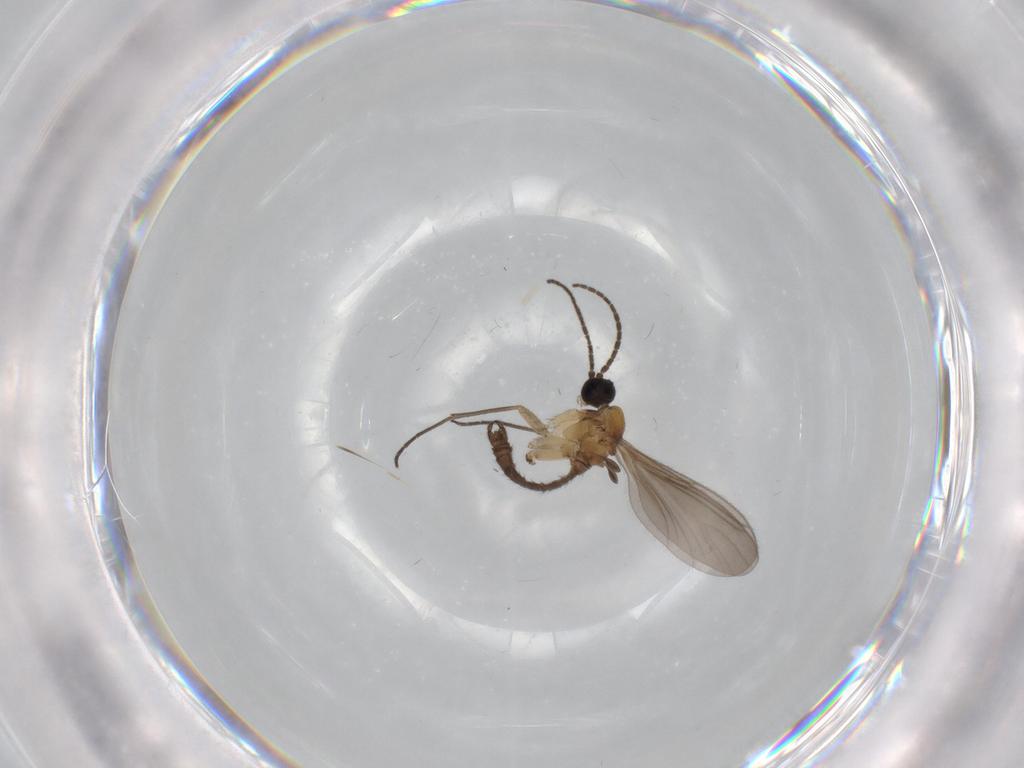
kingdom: Animalia
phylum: Arthropoda
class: Insecta
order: Diptera
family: Sciaridae
